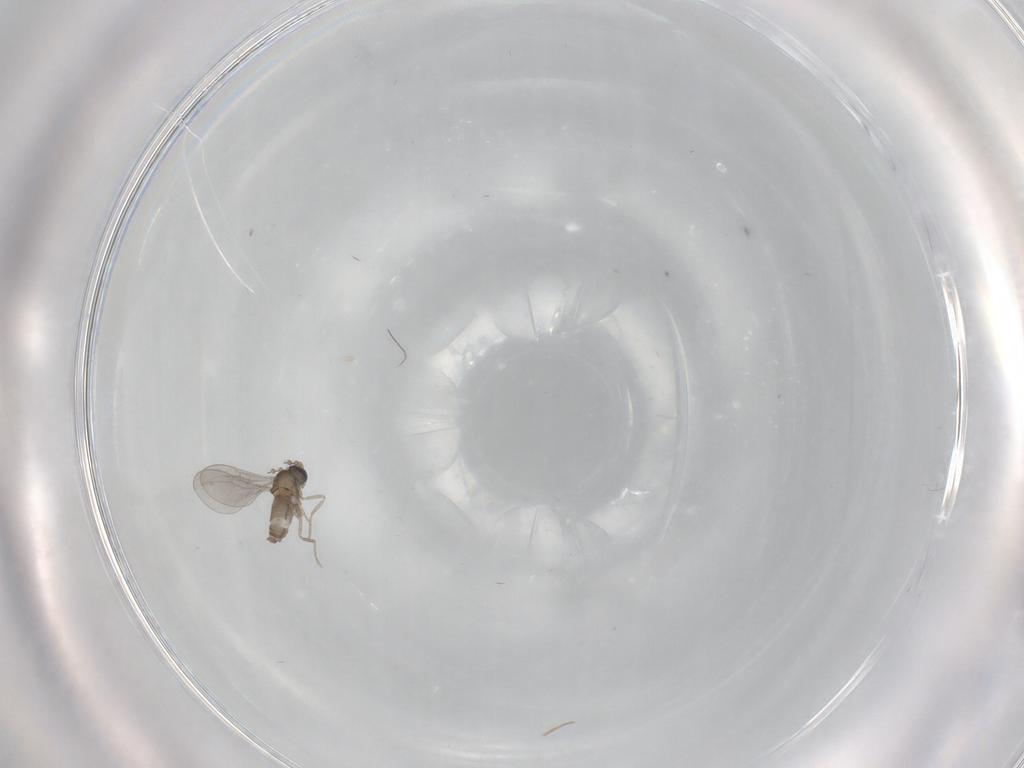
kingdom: Animalia
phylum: Arthropoda
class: Insecta
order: Diptera
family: Cecidomyiidae
